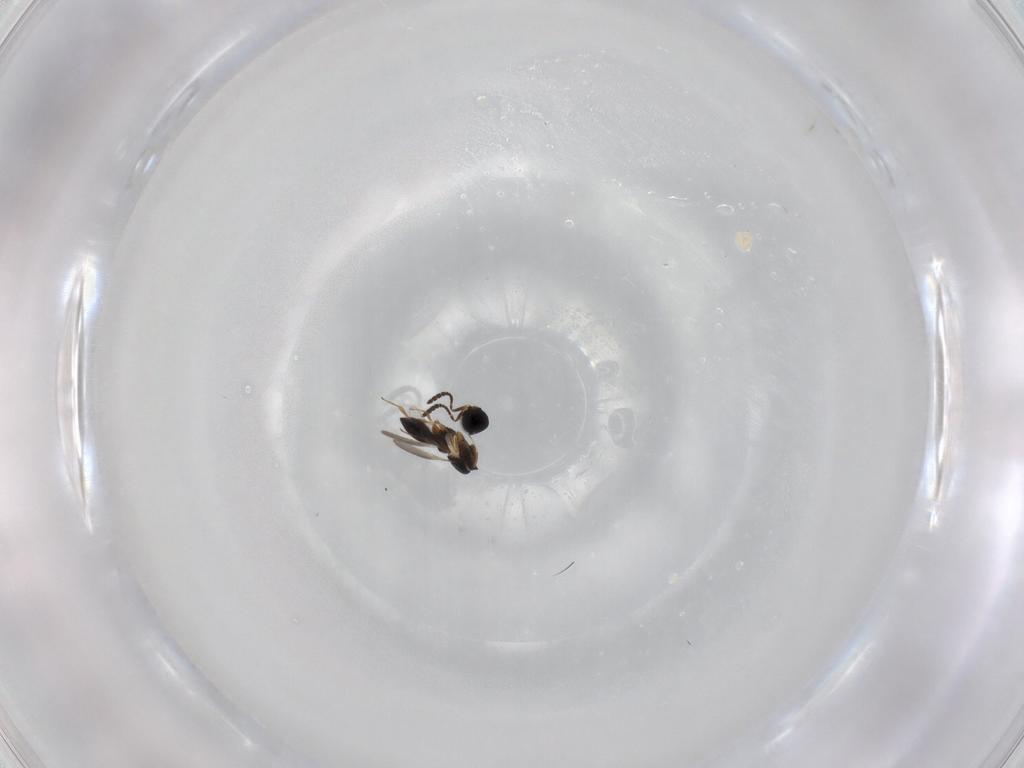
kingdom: Animalia
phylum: Arthropoda
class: Insecta
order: Hymenoptera
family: Scelionidae
